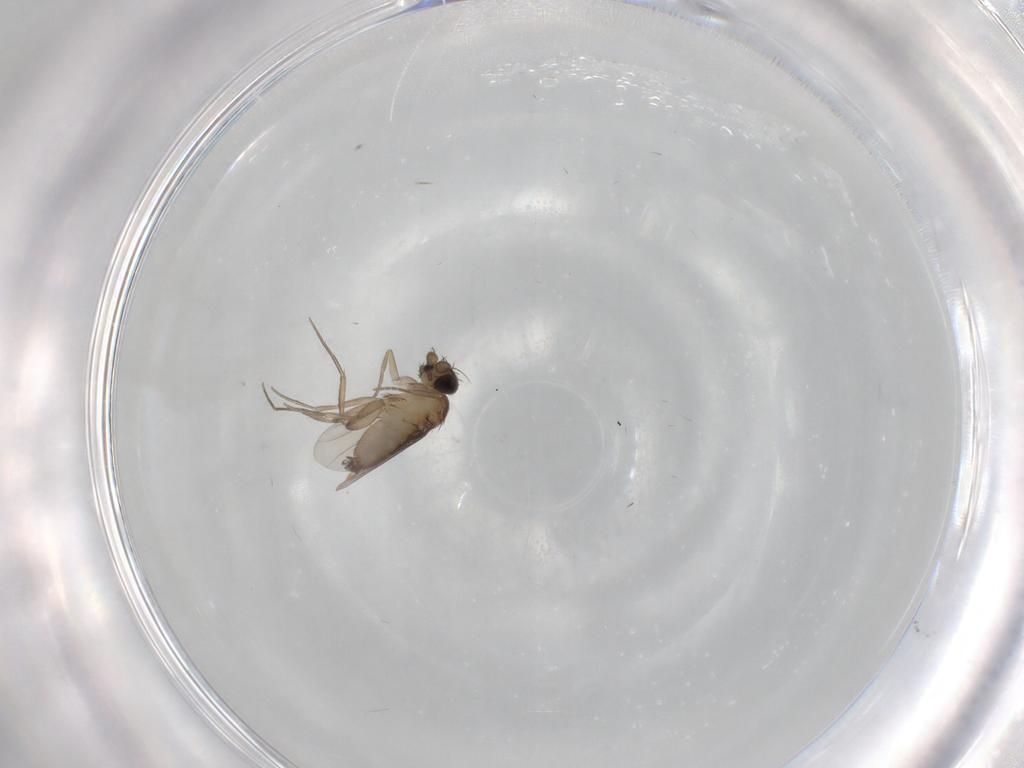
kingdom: Animalia
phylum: Arthropoda
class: Insecta
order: Diptera
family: Phoridae
